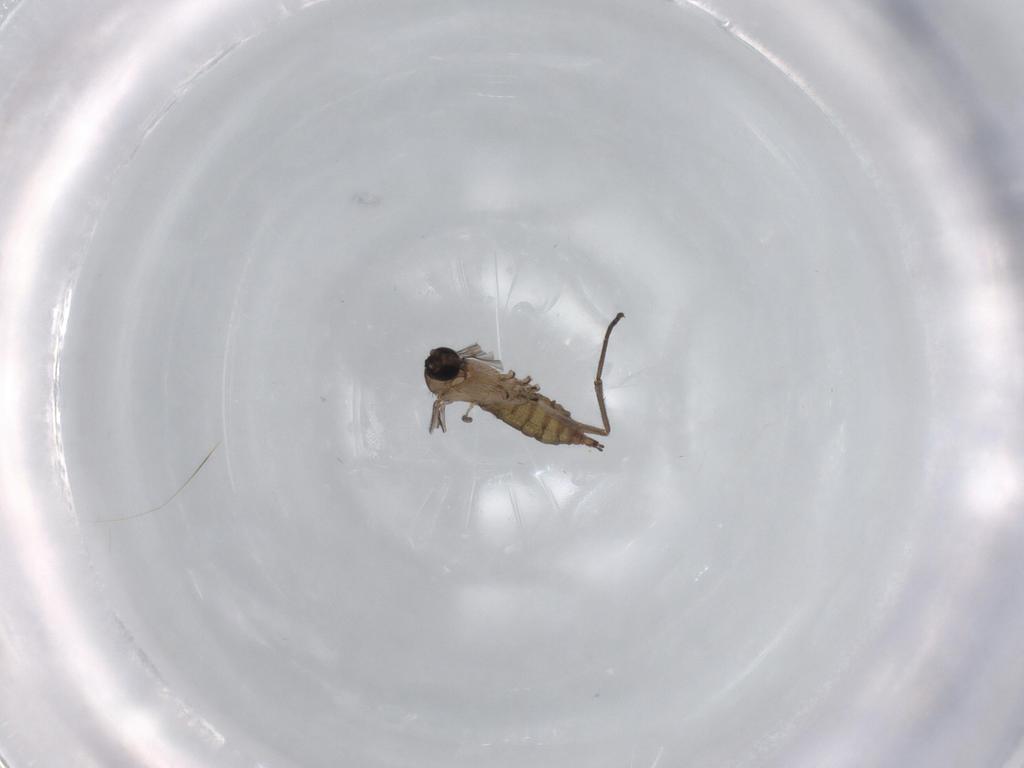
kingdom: Animalia
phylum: Arthropoda
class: Insecta
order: Diptera
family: Sciaridae
